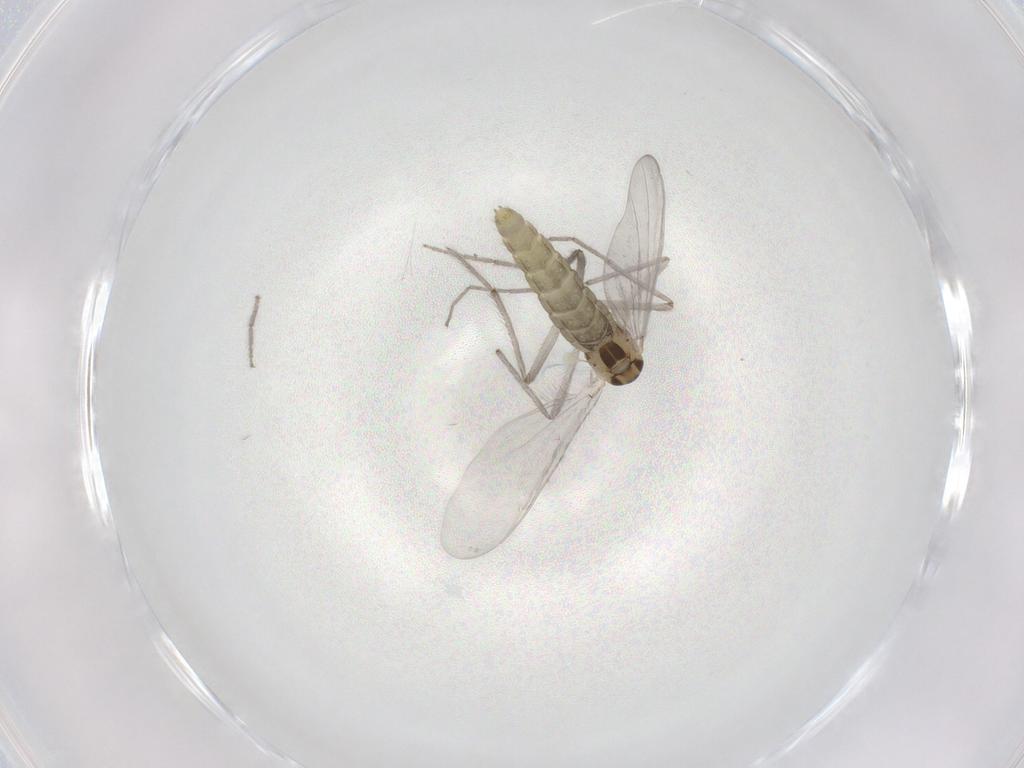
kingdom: Animalia
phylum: Arthropoda
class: Insecta
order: Diptera
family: Chironomidae
